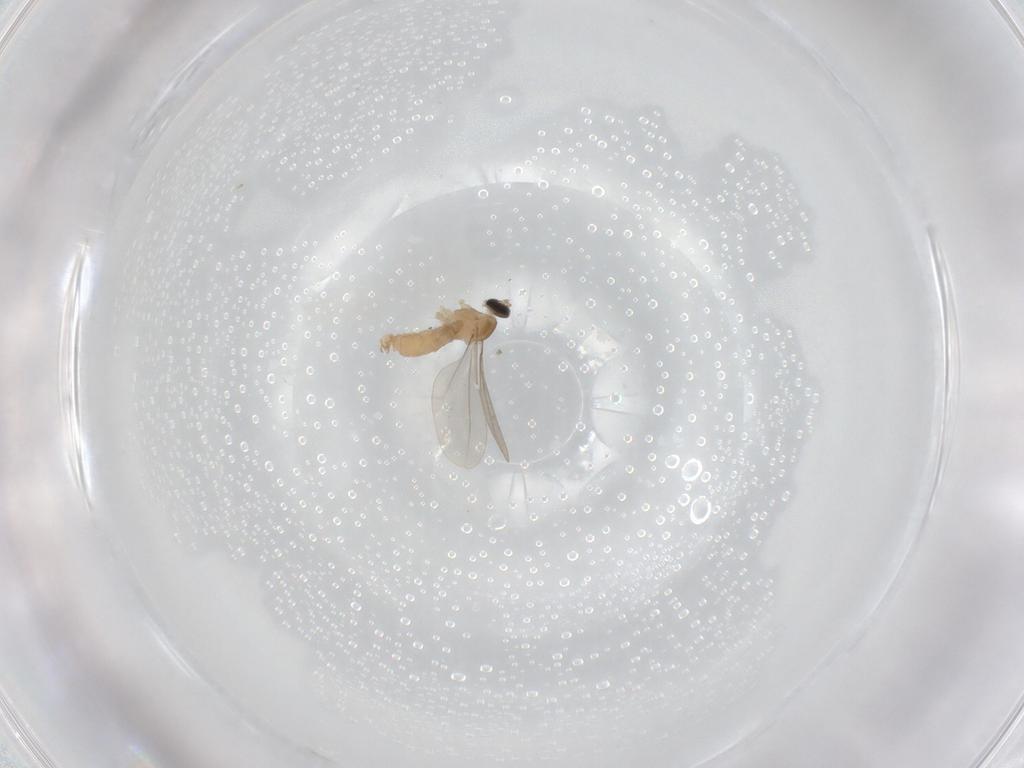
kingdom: Animalia
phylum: Arthropoda
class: Insecta
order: Diptera
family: Cecidomyiidae
